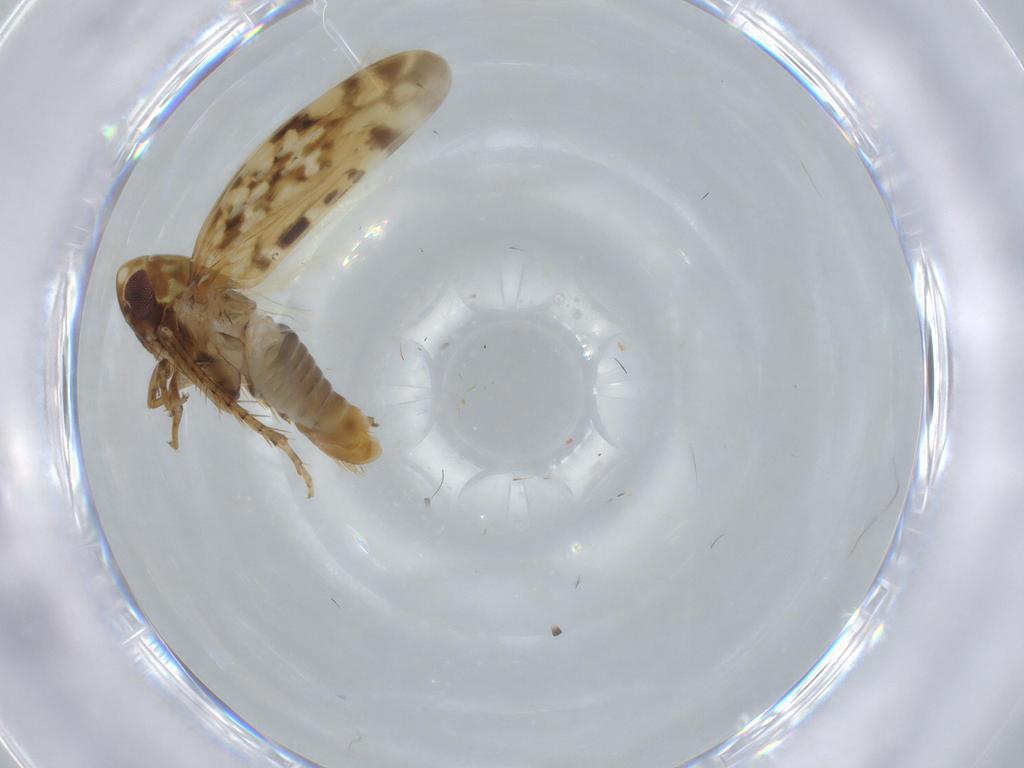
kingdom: Animalia
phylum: Arthropoda
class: Insecta
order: Hemiptera
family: Cicadellidae
